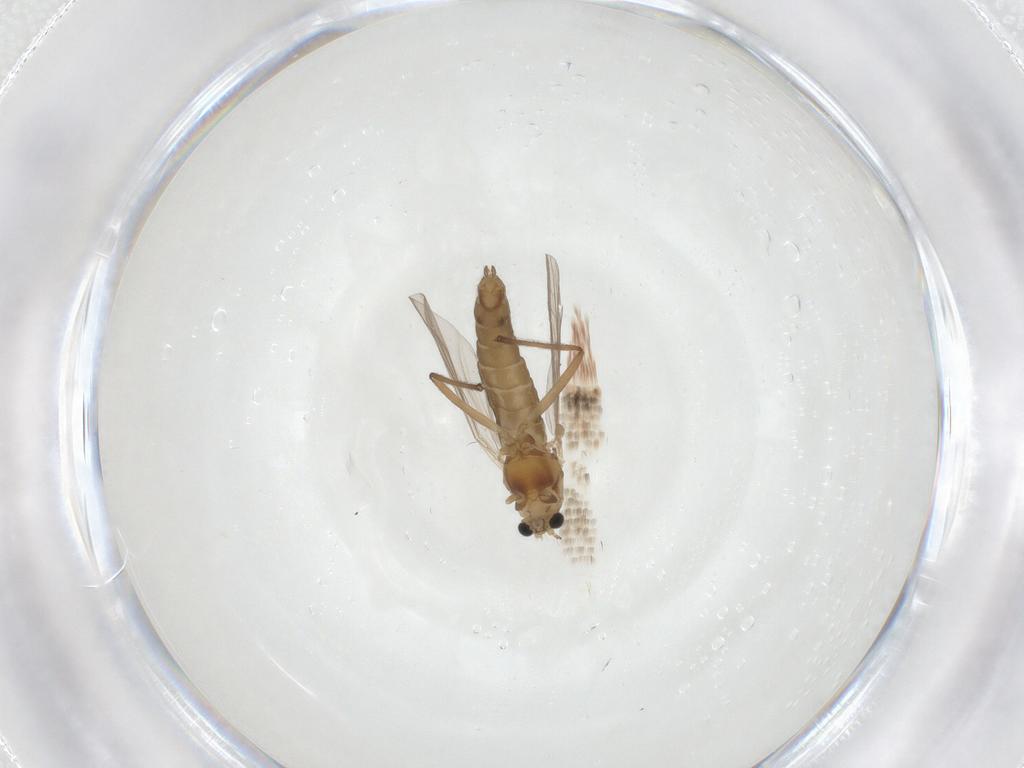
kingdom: Animalia
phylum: Arthropoda
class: Insecta
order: Diptera
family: Chironomidae
